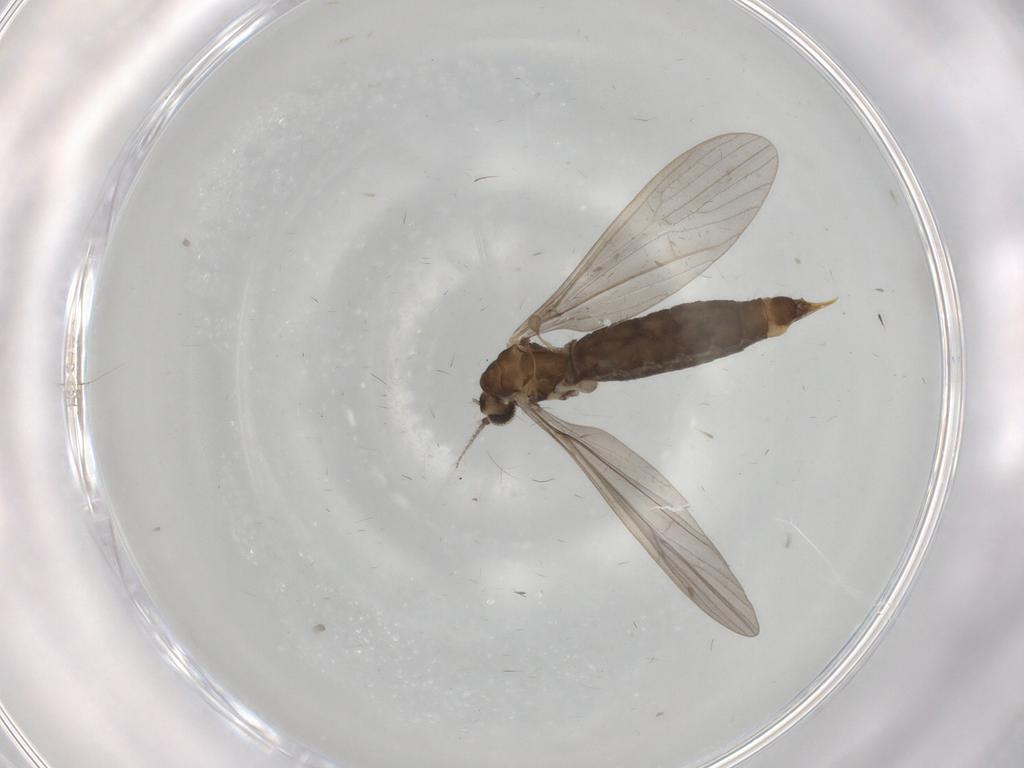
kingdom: Animalia
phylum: Arthropoda
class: Insecta
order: Diptera
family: Limoniidae
